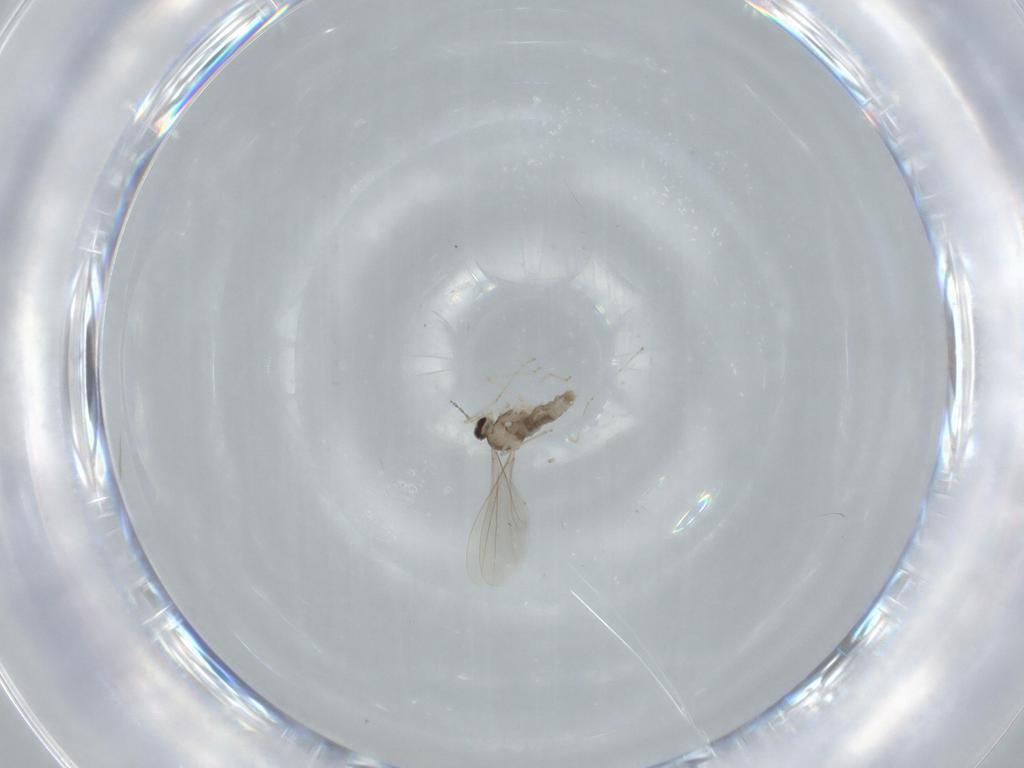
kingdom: Animalia
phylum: Arthropoda
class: Insecta
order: Diptera
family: Cecidomyiidae
